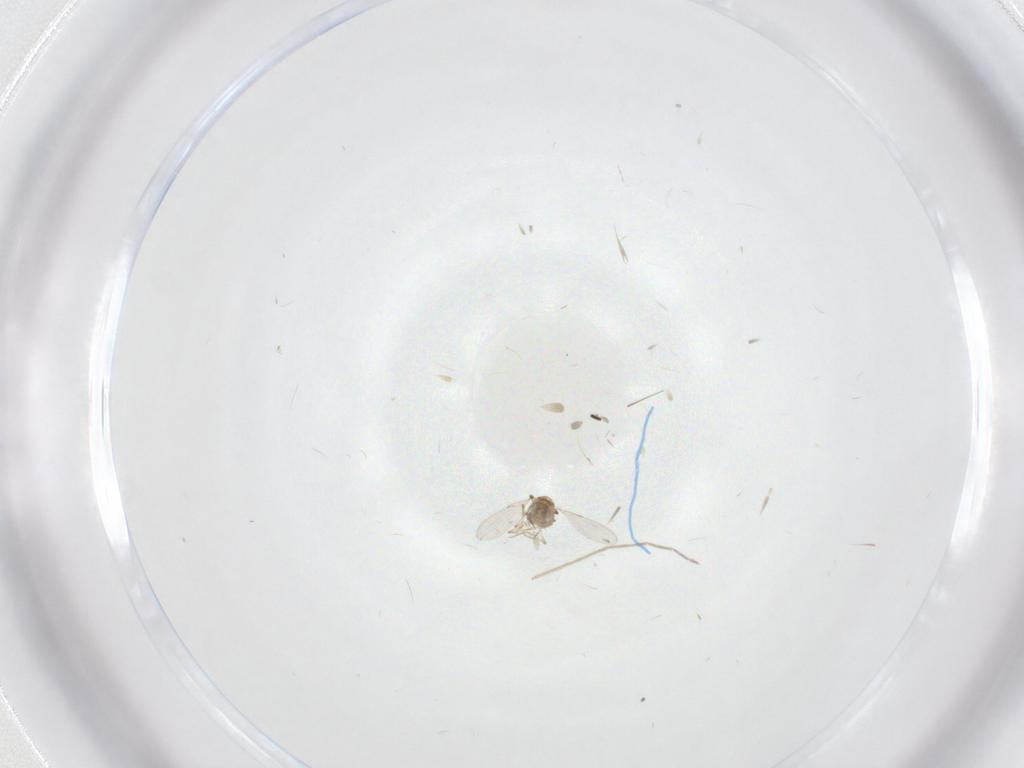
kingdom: Animalia
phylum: Arthropoda
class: Insecta
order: Diptera
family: Ceratopogonidae
